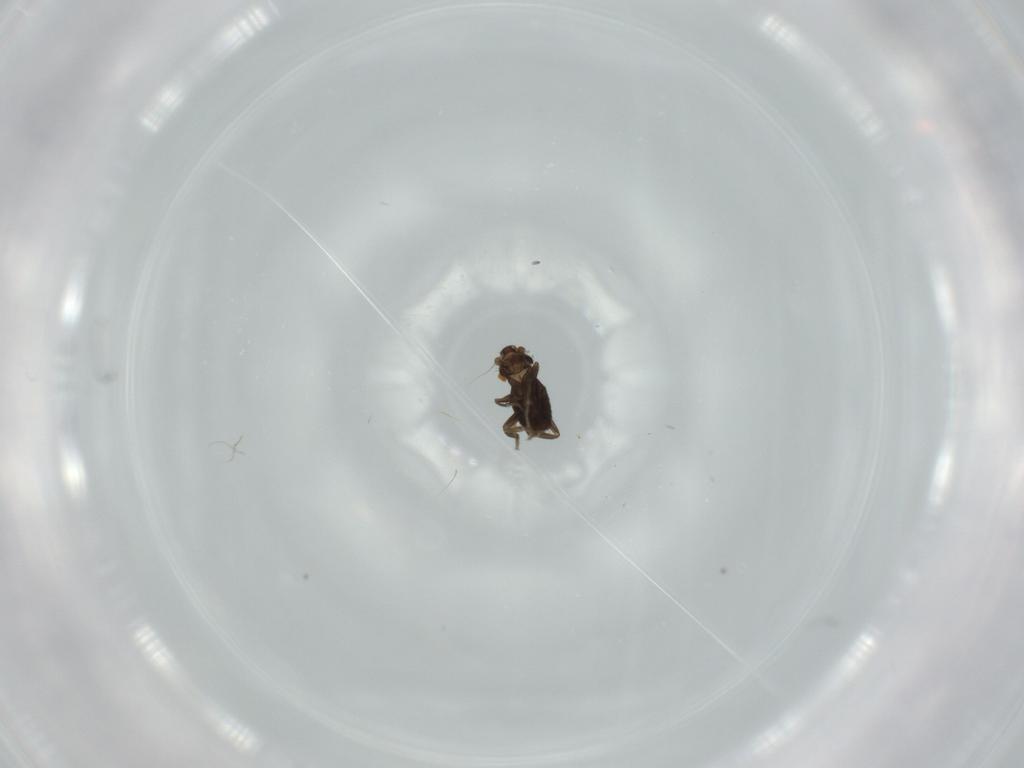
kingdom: Animalia
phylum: Arthropoda
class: Insecta
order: Diptera
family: Phoridae
